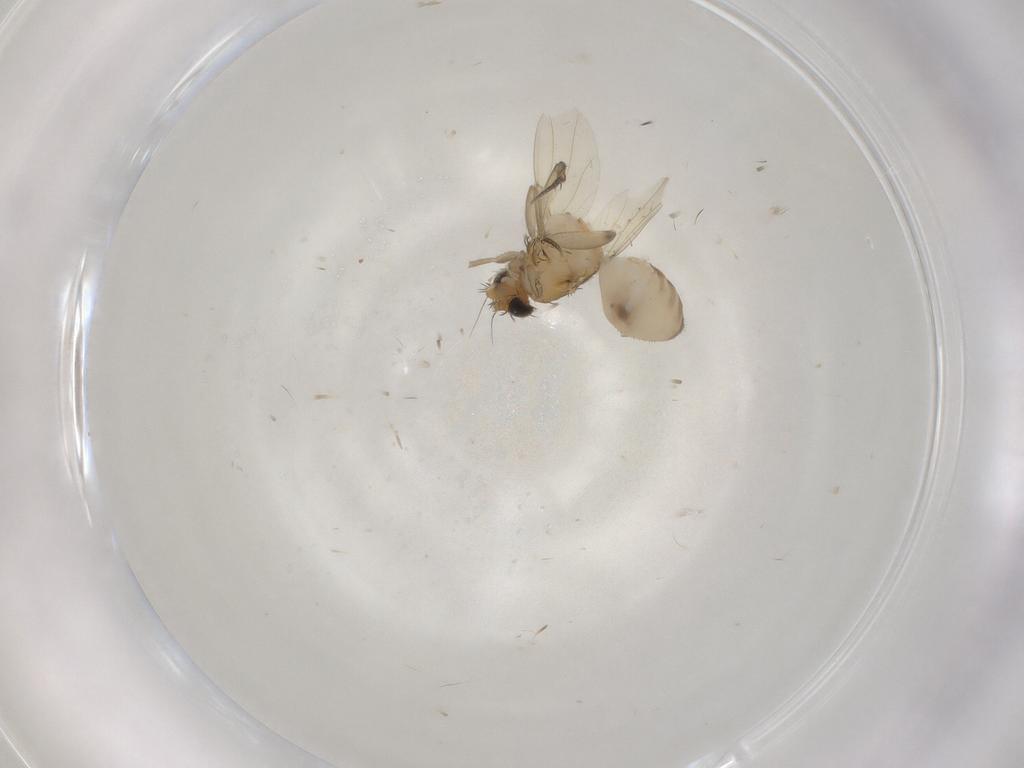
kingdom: Animalia
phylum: Arthropoda
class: Insecta
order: Diptera
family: Phoridae
